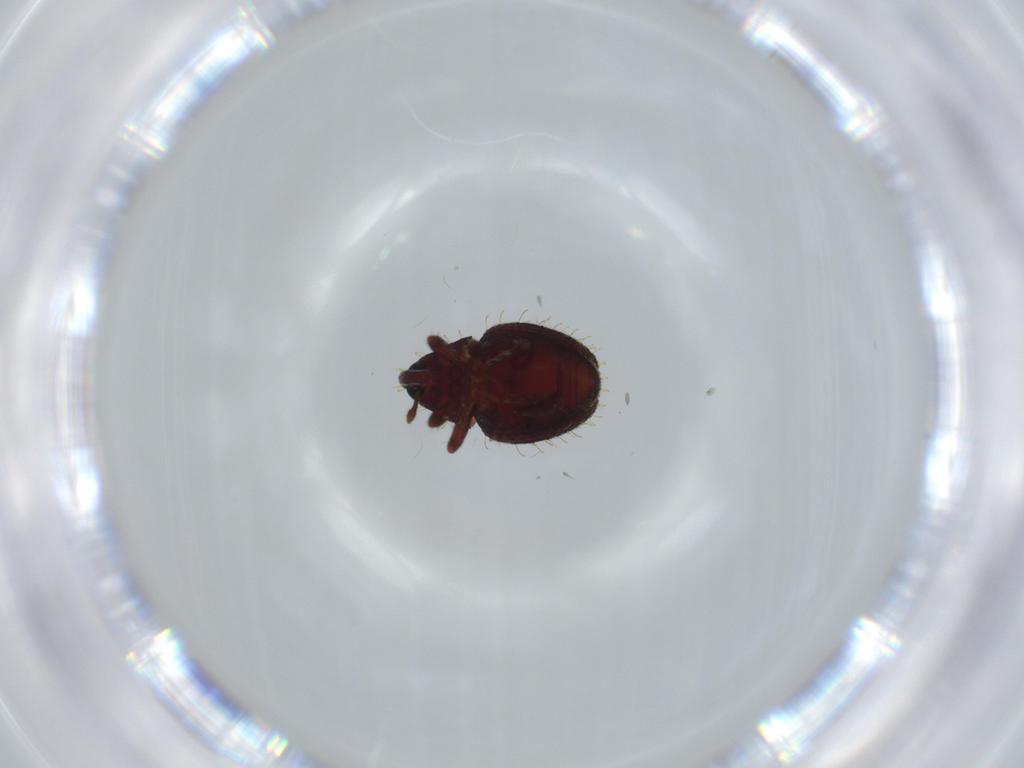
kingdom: Animalia
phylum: Arthropoda
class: Insecta
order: Coleoptera
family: Curculionidae
